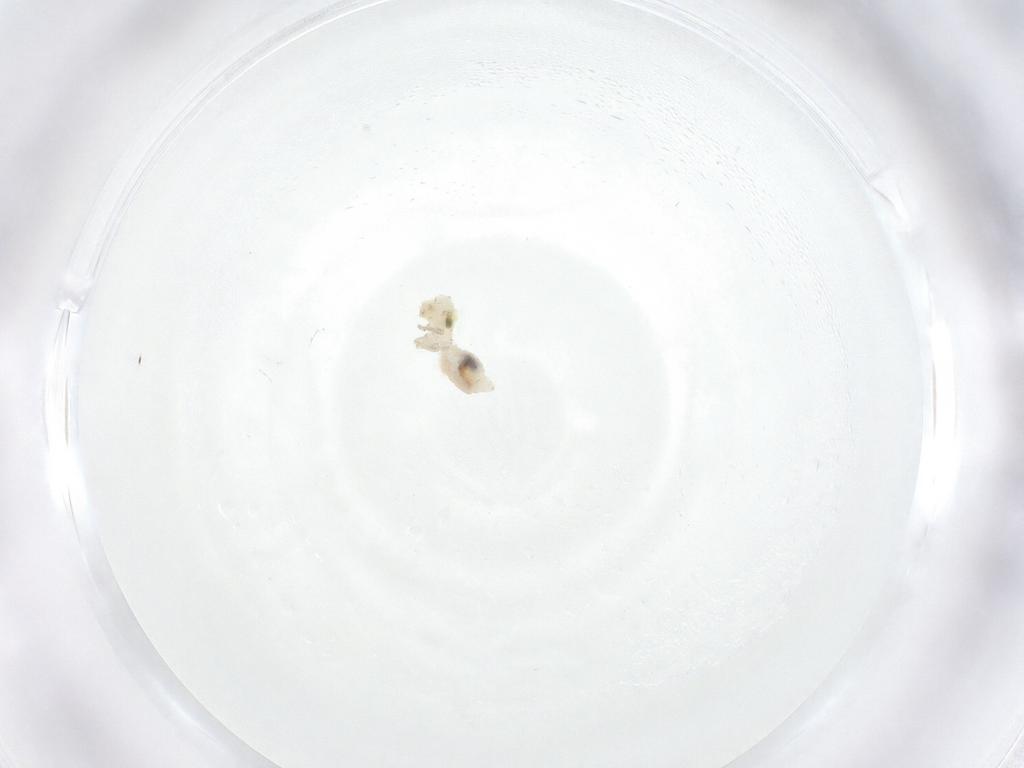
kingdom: Animalia
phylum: Arthropoda
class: Insecta
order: Psocodea
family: Caeciliusidae
